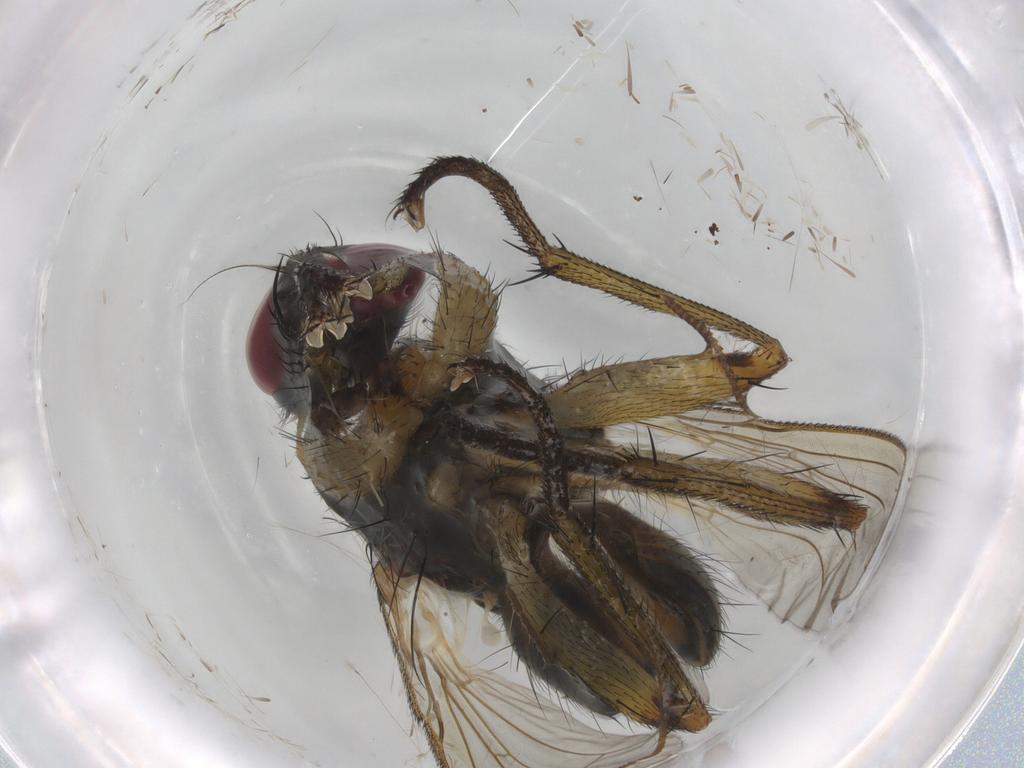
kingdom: Animalia
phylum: Arthropoda
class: Insecta
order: Diptera
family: Muscidae
